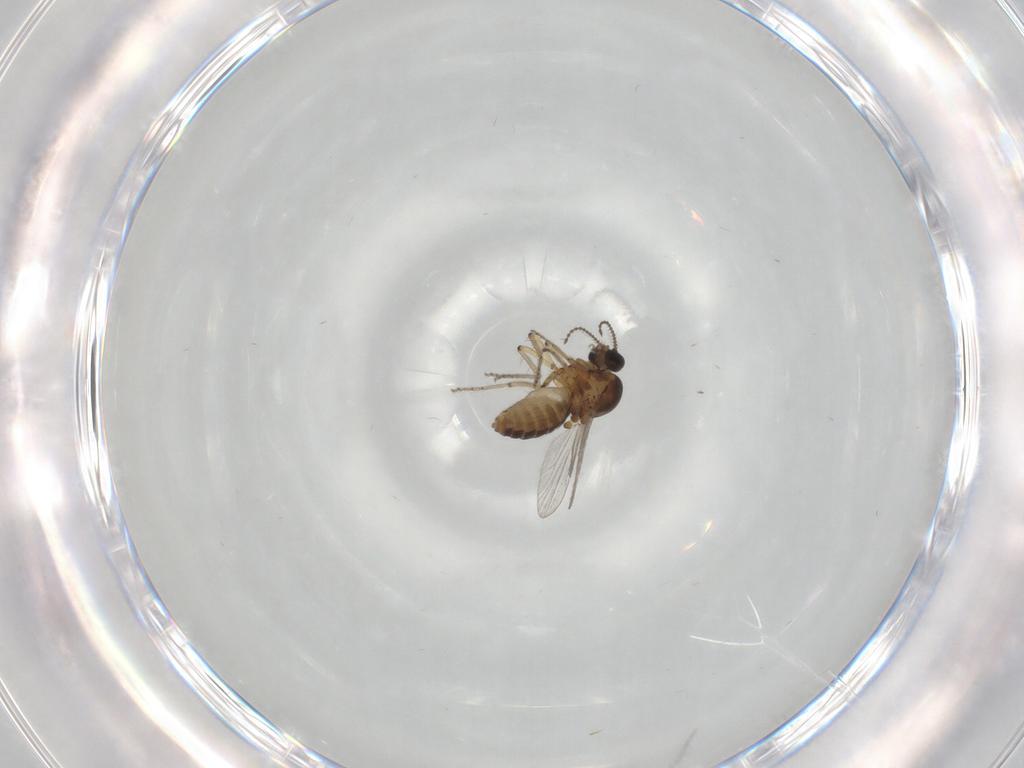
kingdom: Animalia
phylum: Arthropoda
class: Insecta
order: Diptera
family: Ceratopogonidae
